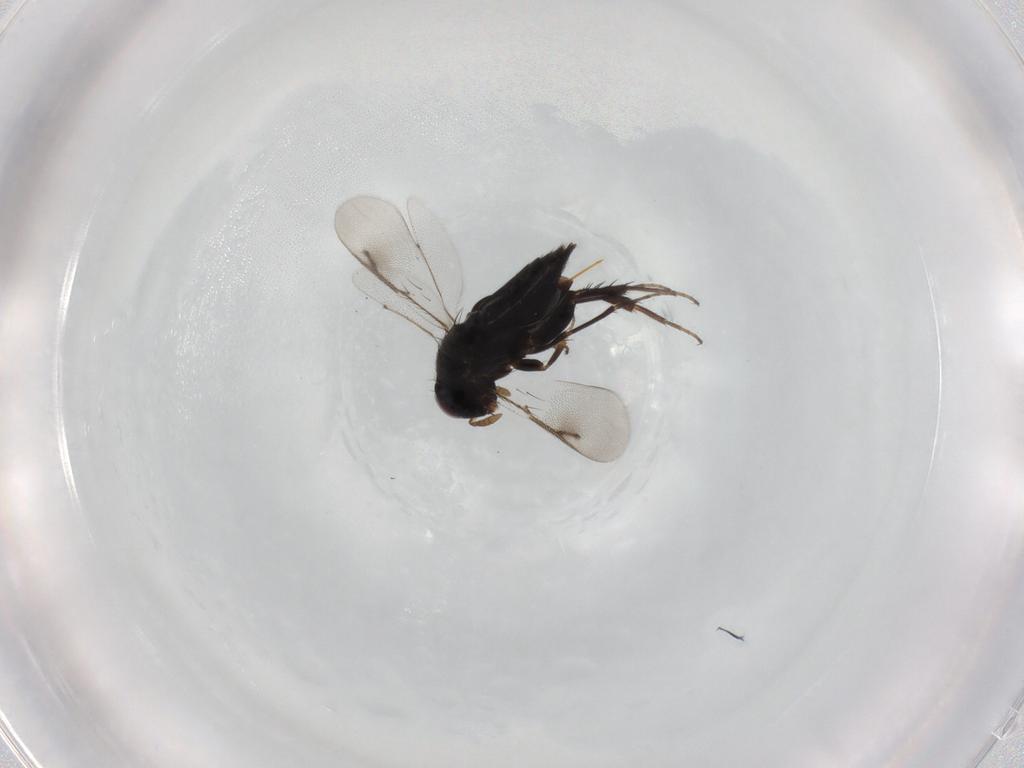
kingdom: Animalia
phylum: Arthropoda
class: Insecta
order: Hymenoptera
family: Pirenidae
